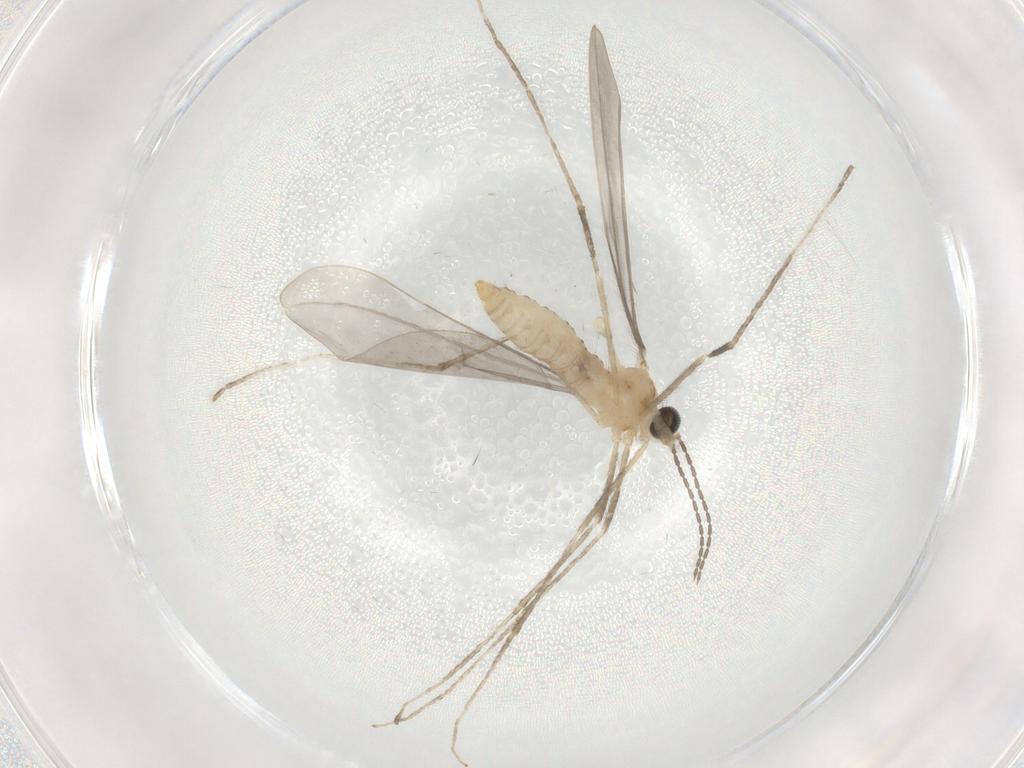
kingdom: Animalia
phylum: Arthropoda
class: Insecta
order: Diptera
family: Cecidomyiidae
